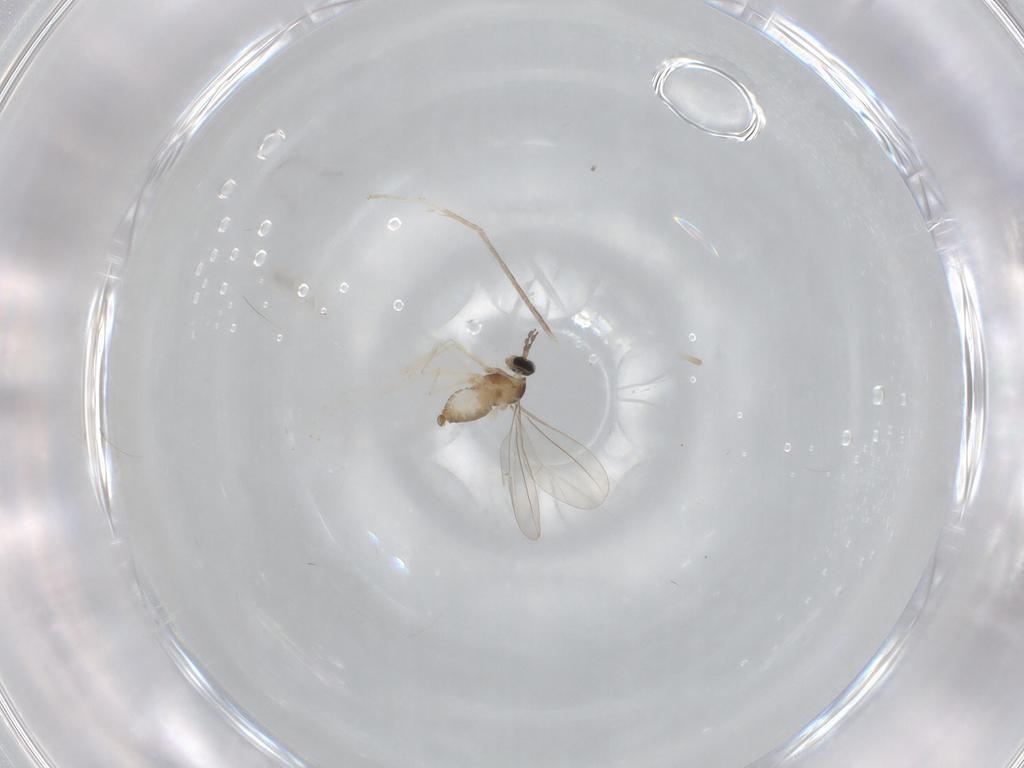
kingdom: Animalia
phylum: Arthropoda
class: Insecta
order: Diptera
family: Cecidomyiidae
